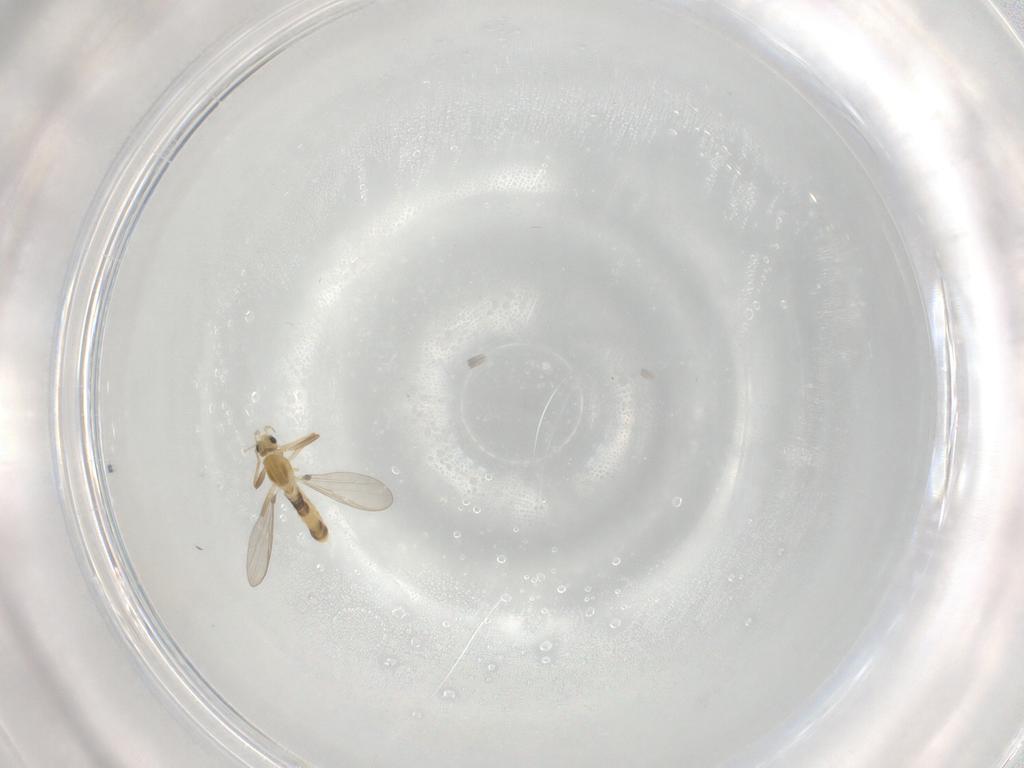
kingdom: Animalia
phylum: Arthropoda
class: Insecta
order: Diptera
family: Chironomidae
